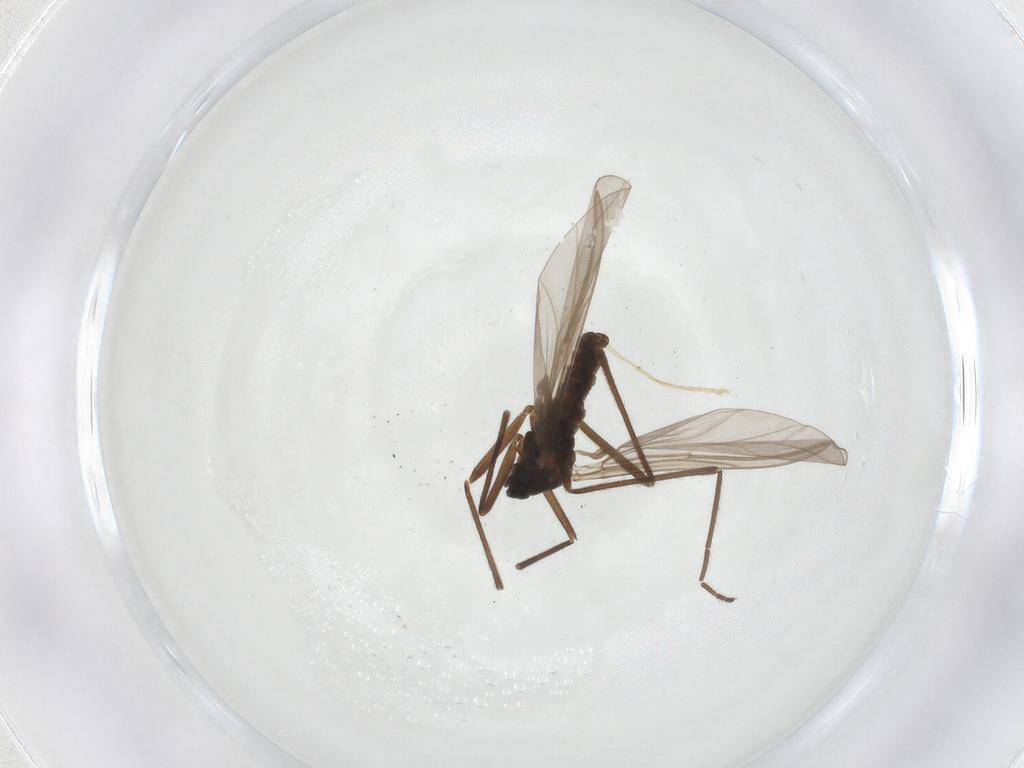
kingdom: Animalia
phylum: Arthropoda
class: Insecta
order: Diptera
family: Cecidomyiidae
